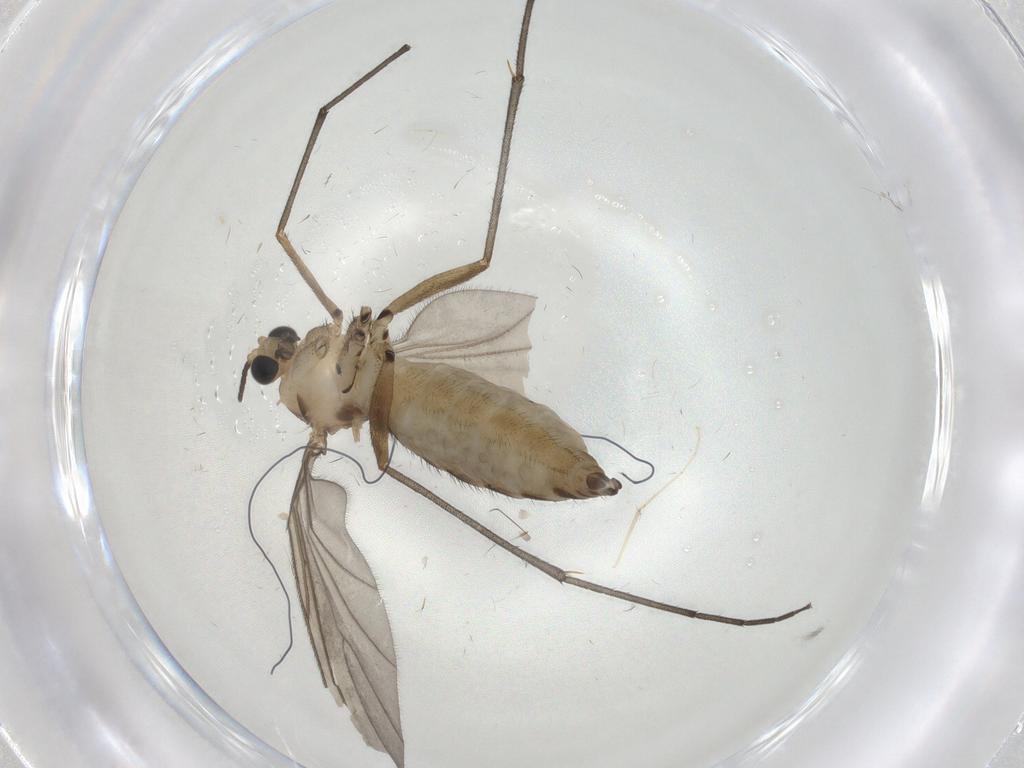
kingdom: Animalia
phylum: Arthropoda
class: Insecta
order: Diptera
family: Sciaridae
